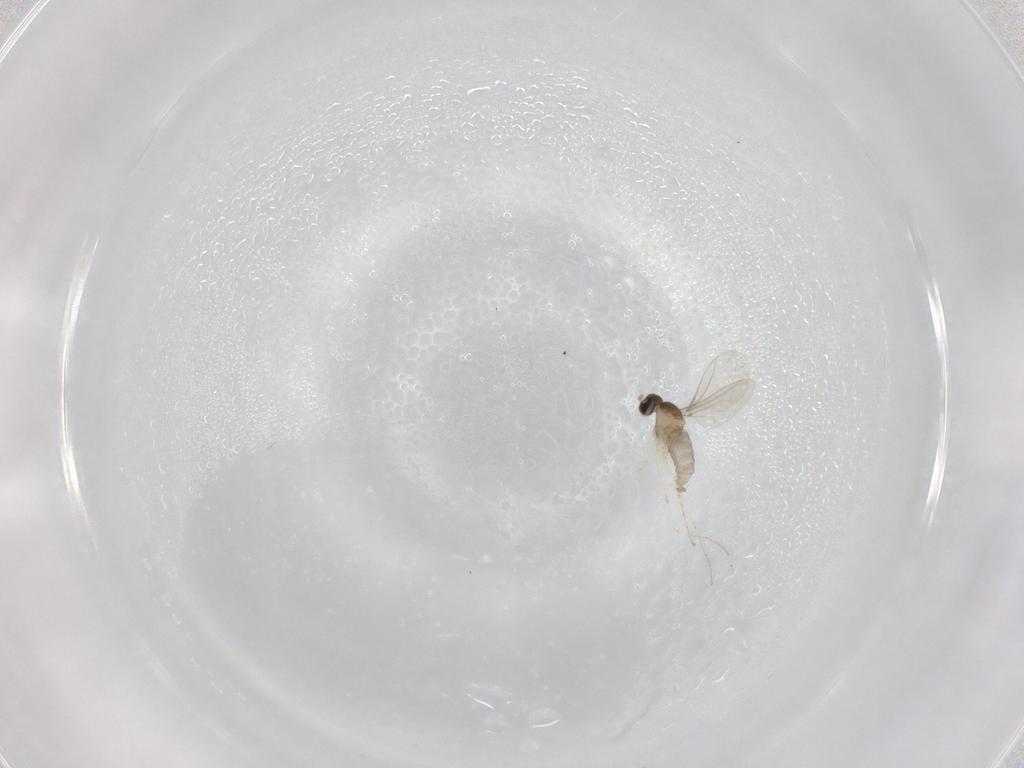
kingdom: Animalia
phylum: Arthropoda
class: Insecta
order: Diptera
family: Cecidomyiidae
